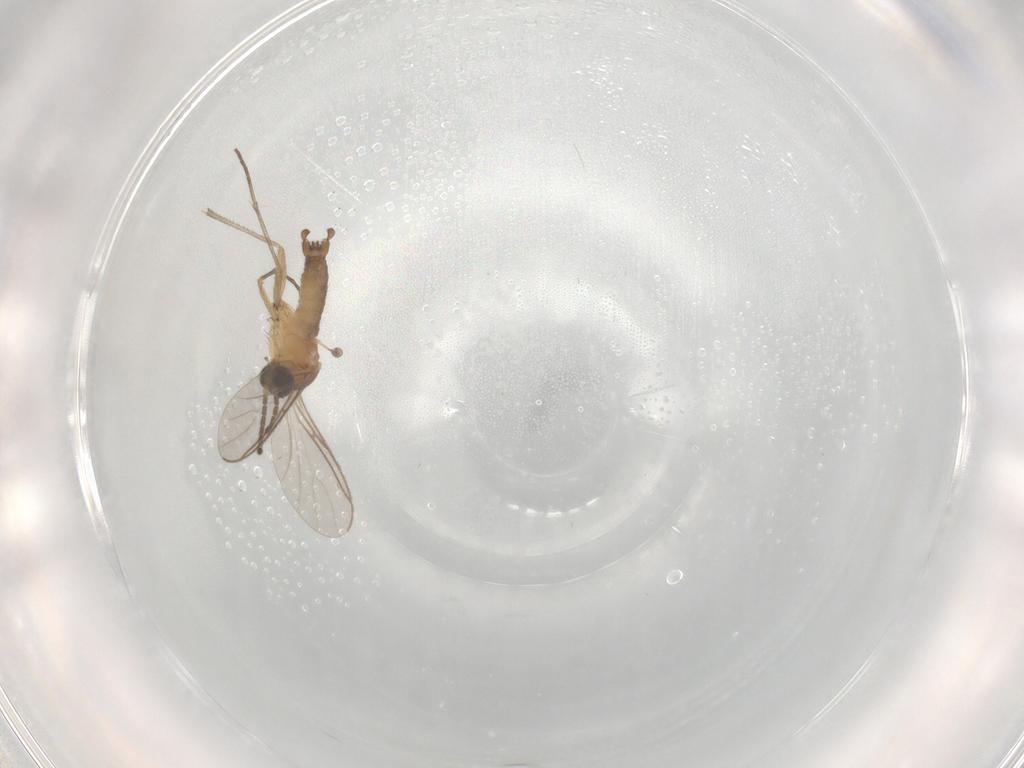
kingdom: Animalia
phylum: Arthropoda
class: Insecta
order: Diptera
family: Sciaridae
